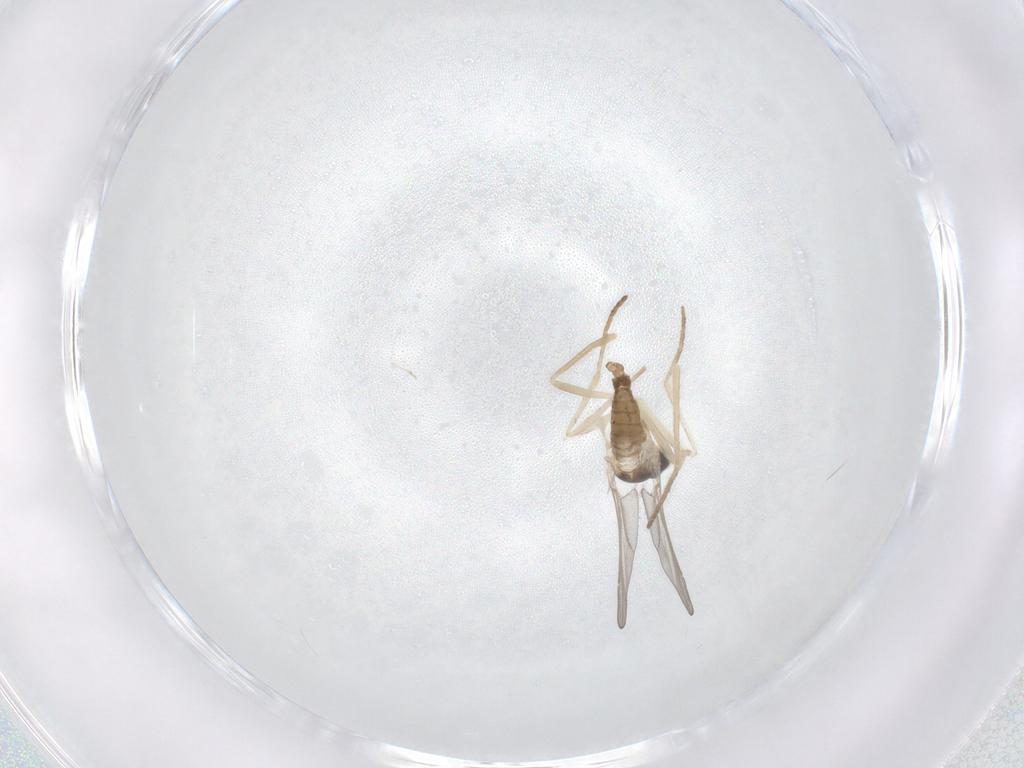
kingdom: Animalia
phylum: Arthropoda
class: Insecta
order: Diptera
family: Cecidomyiidae
